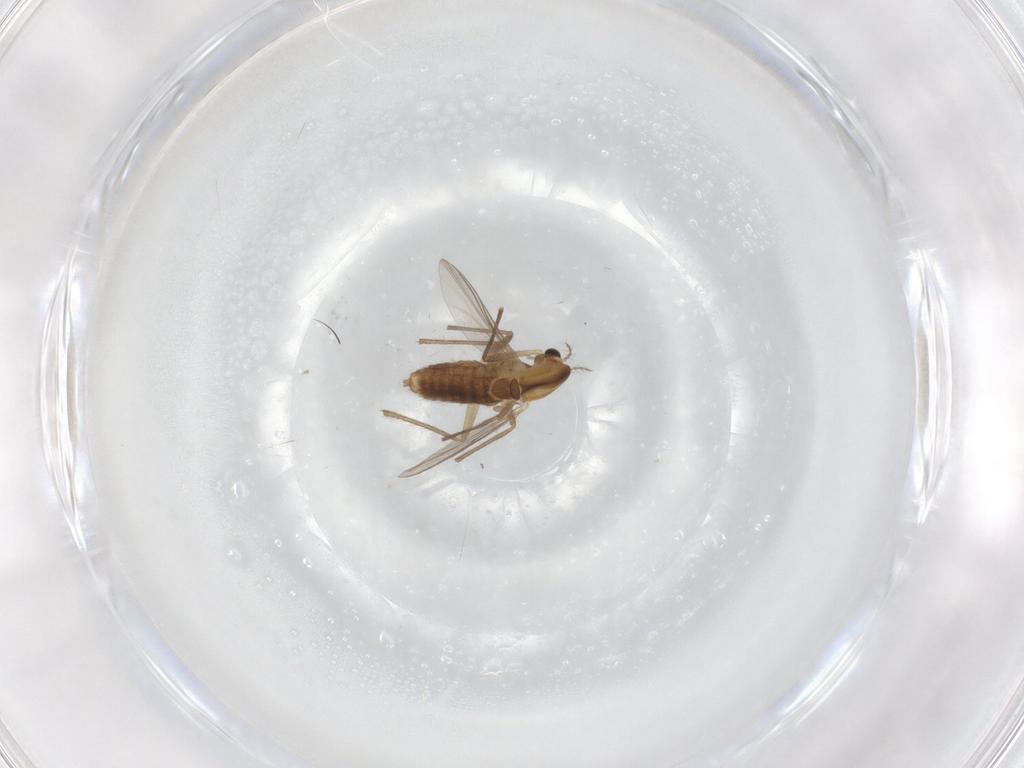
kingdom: Animalia
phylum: Arthropoda
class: Insecta
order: Diptera
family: Chironomidae
